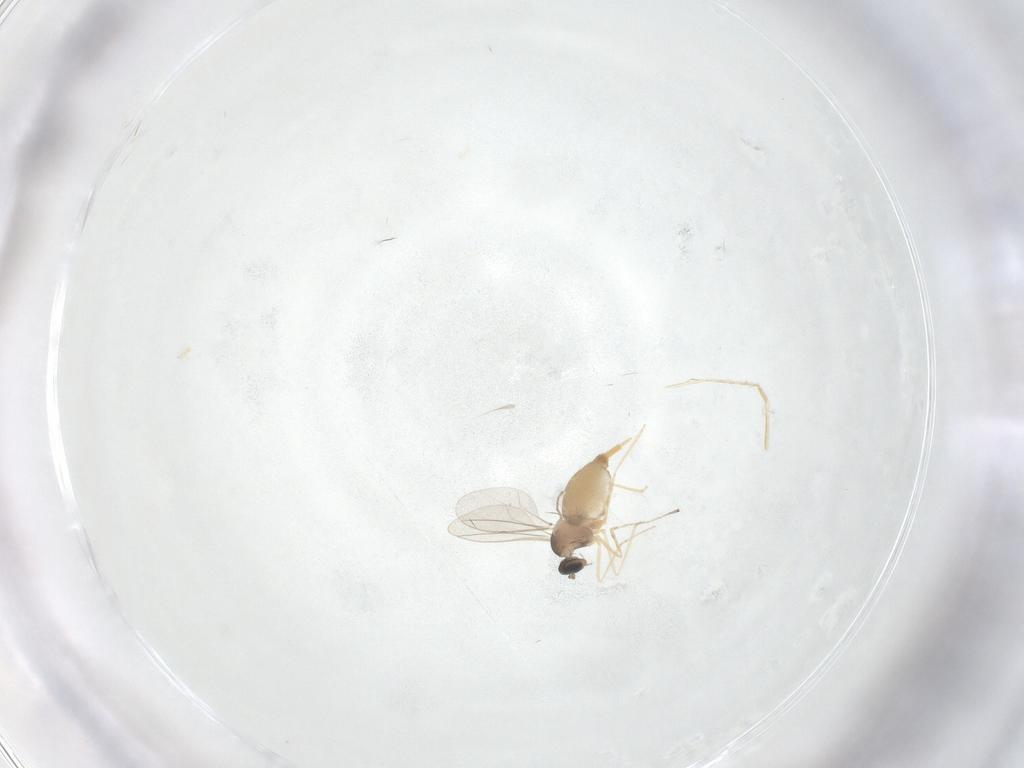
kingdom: Animalia
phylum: Arthropoda
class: Insecta
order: Diptera
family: Cecidomyiidae
